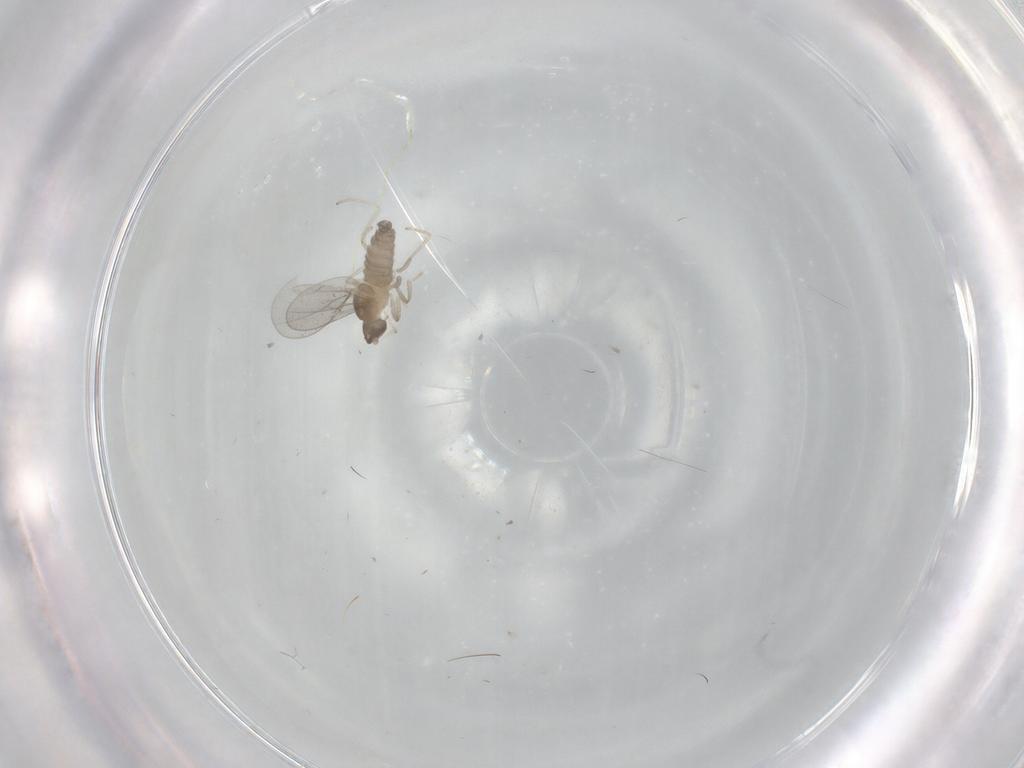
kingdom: Animalia
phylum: Arthropoda
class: Insecta
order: Diptera
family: Cecidomyiidae
